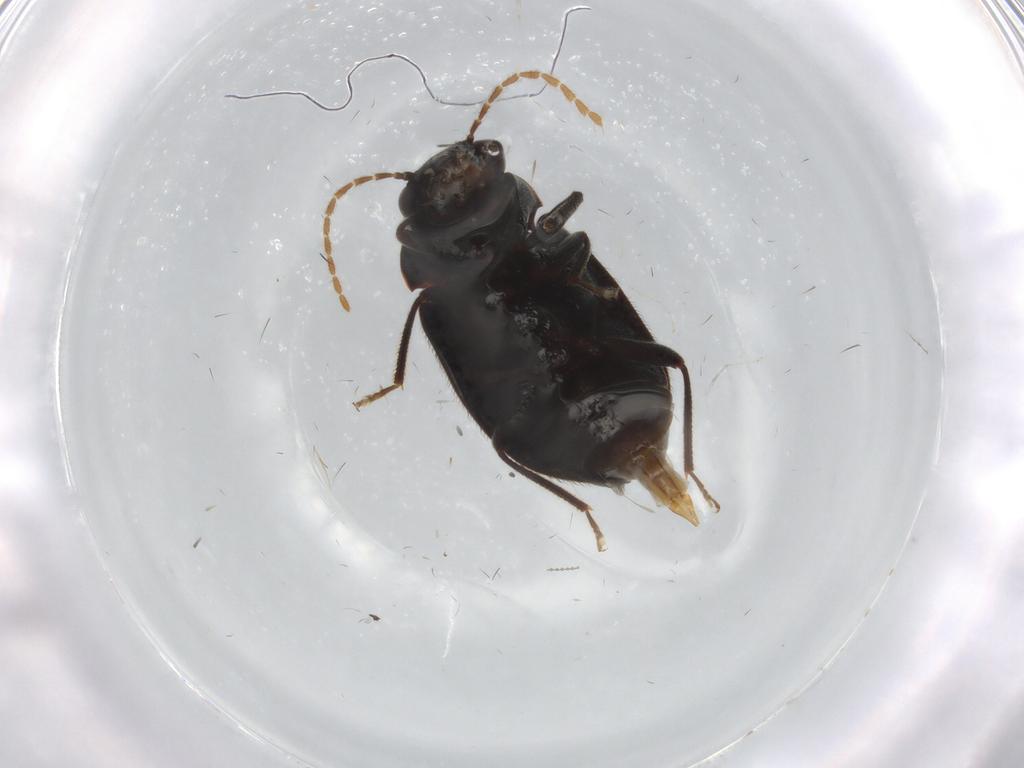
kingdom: Animalia
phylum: Arthropoda
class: Insecta
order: Coleoptera
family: Ptilodactylidae
